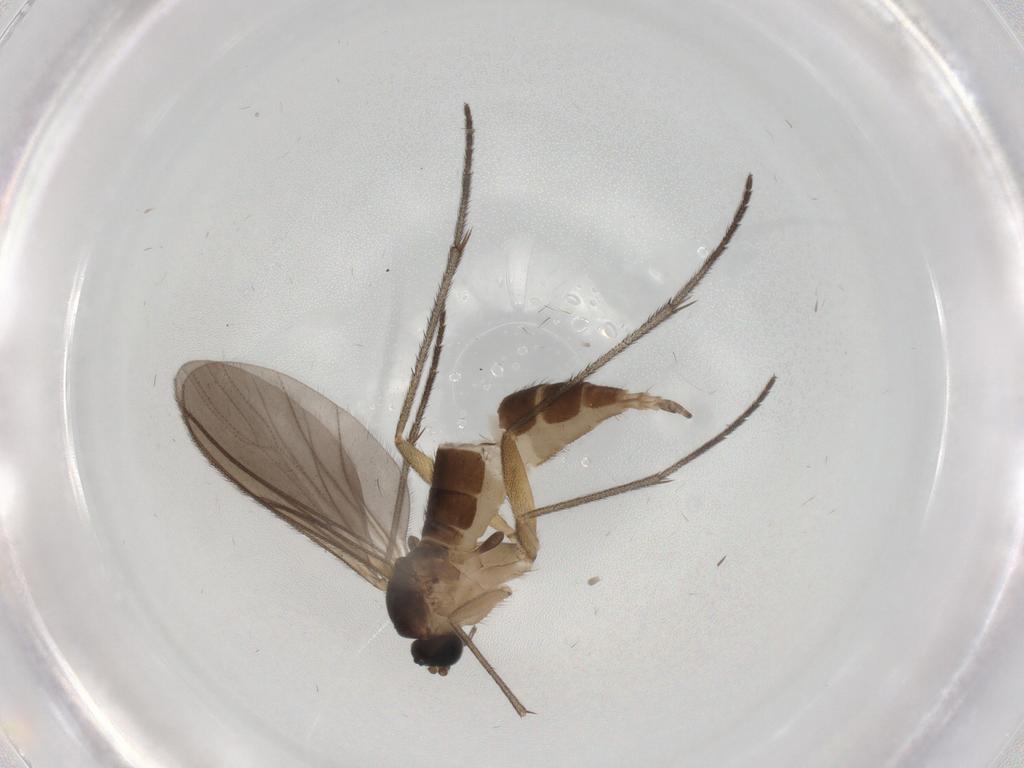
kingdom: Animalia
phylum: Arthropoda
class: Insecta
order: Diptera
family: Sciaridae
